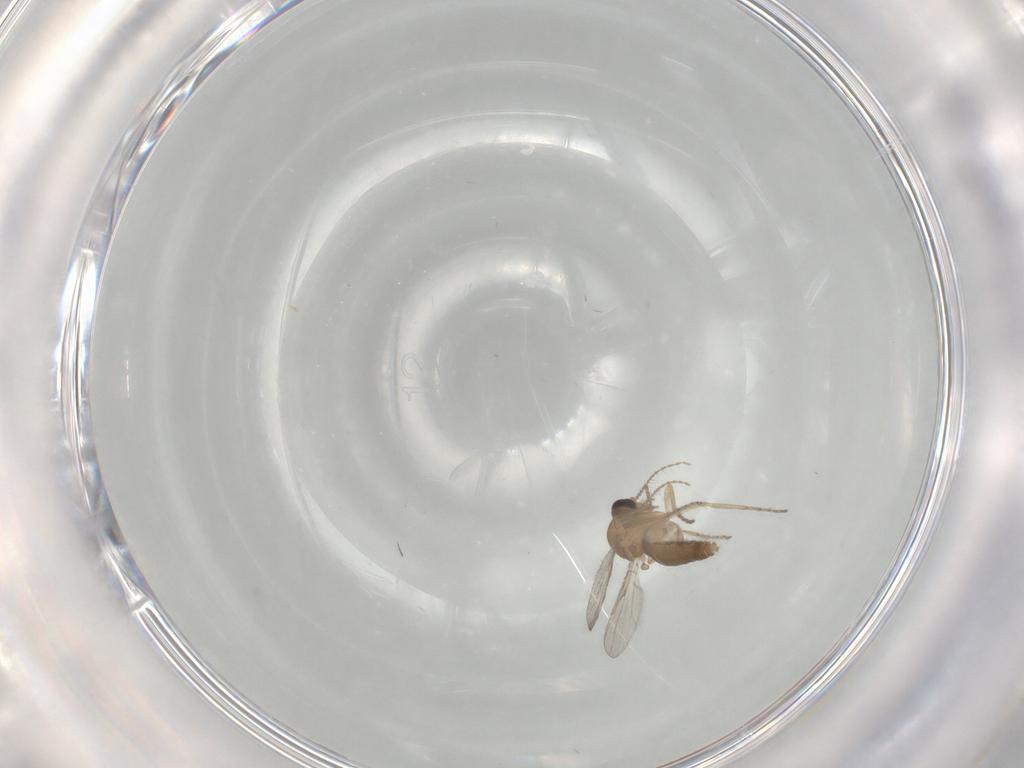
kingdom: Animalia
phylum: Arthropoda
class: Insecta
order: Diptera
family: Ceratopogonidae
